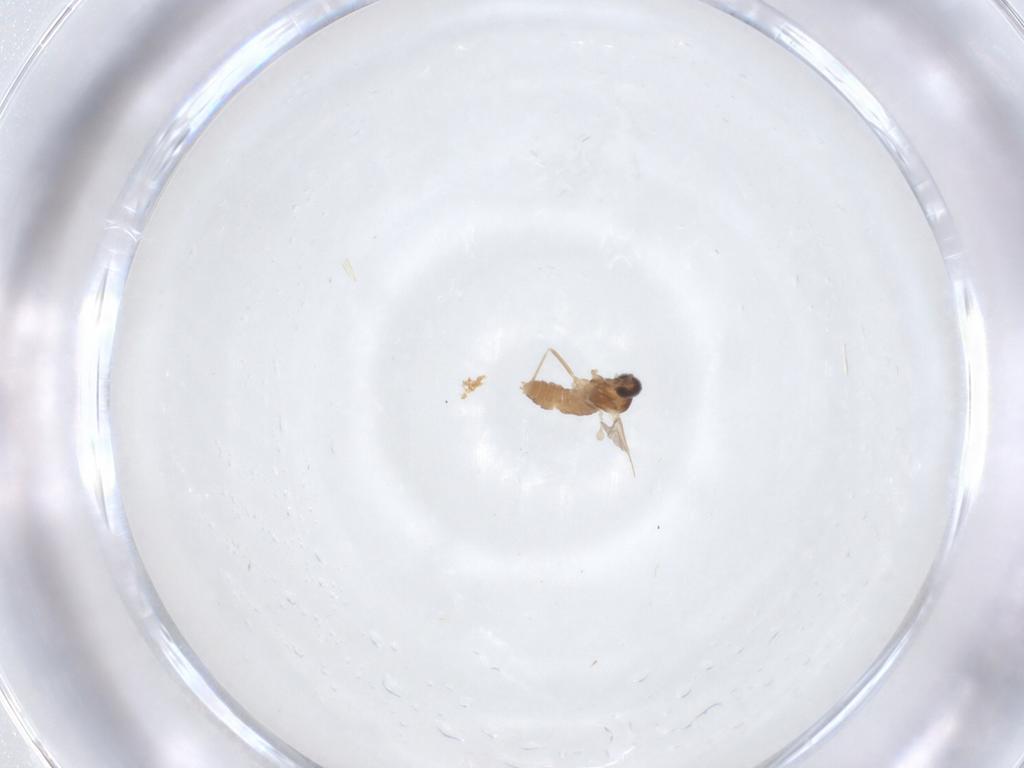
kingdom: Animalia
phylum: Arthropoda
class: Insecta
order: Diptera
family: Cecidomyiidae
